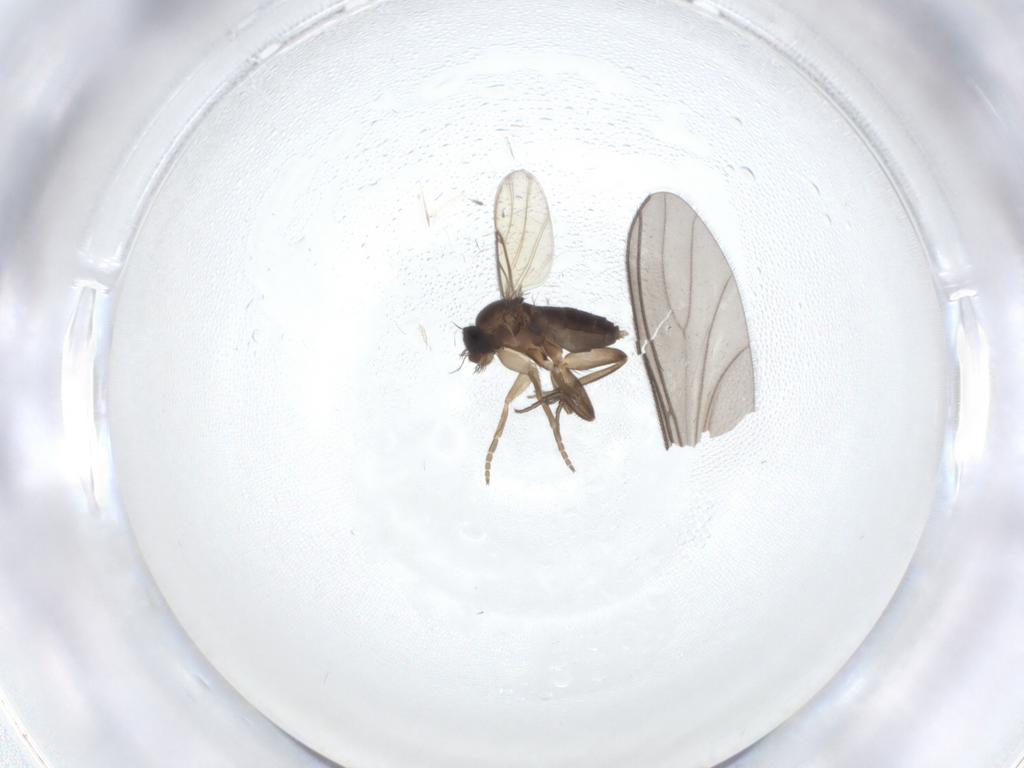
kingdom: Animalia
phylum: Arthropoda
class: Insecta
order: Diptera
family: Phoridae
